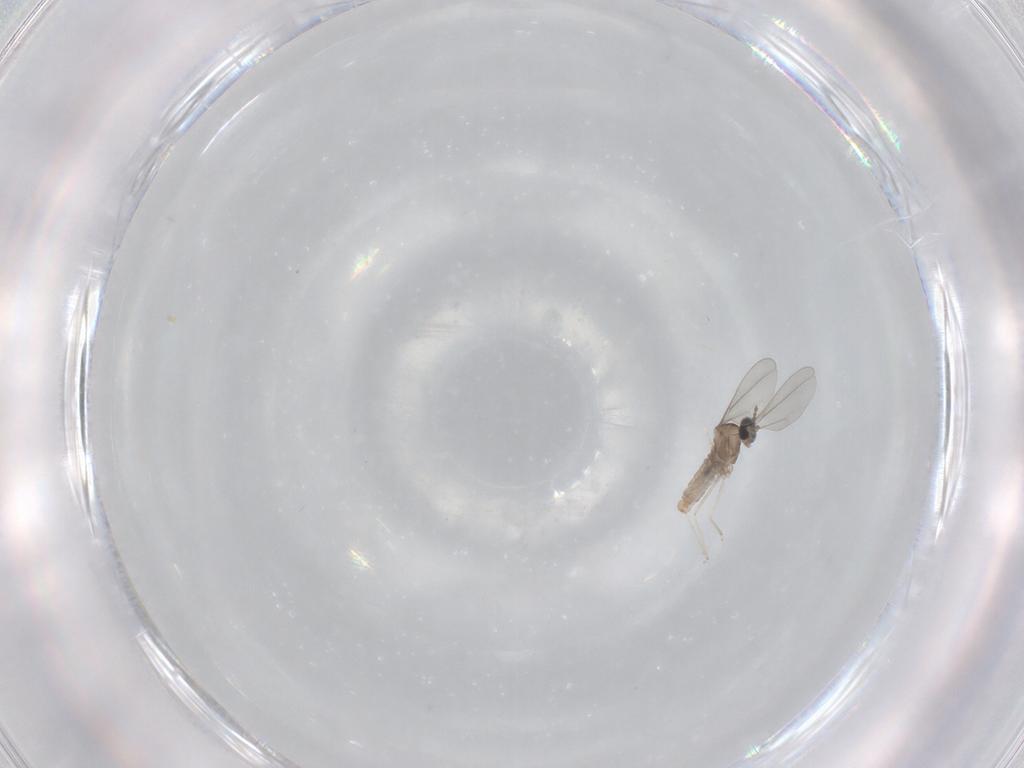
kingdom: Animalia
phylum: Arthropoda
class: Insecta
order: Diptera
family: Cecidomyiidae
